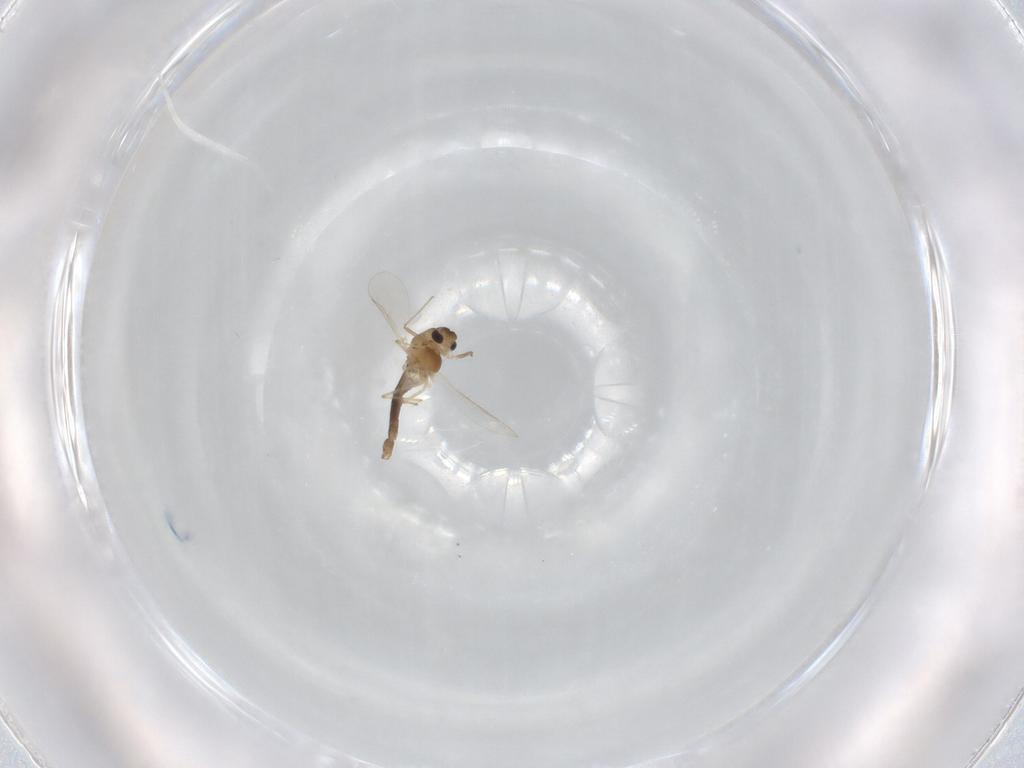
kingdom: Animalia
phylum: Arthropoda
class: Insecta
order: Diptera
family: Chironomidae
